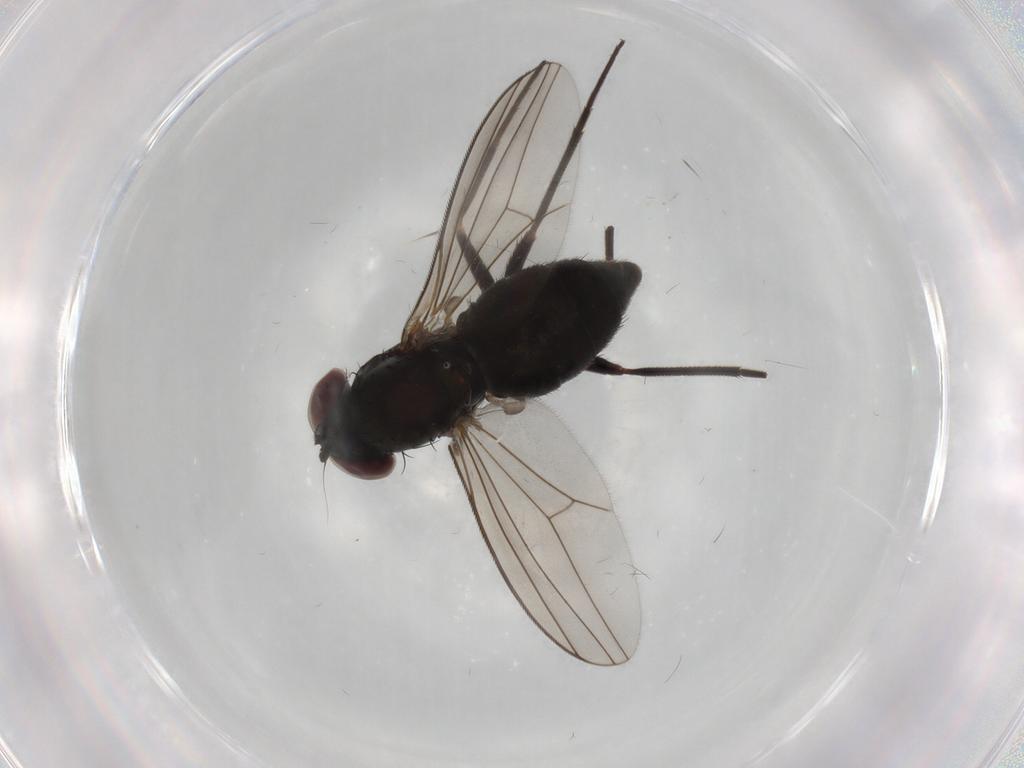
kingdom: Animalia
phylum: Arthropoda
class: Insecta
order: Diptera
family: Dolichopodidae
